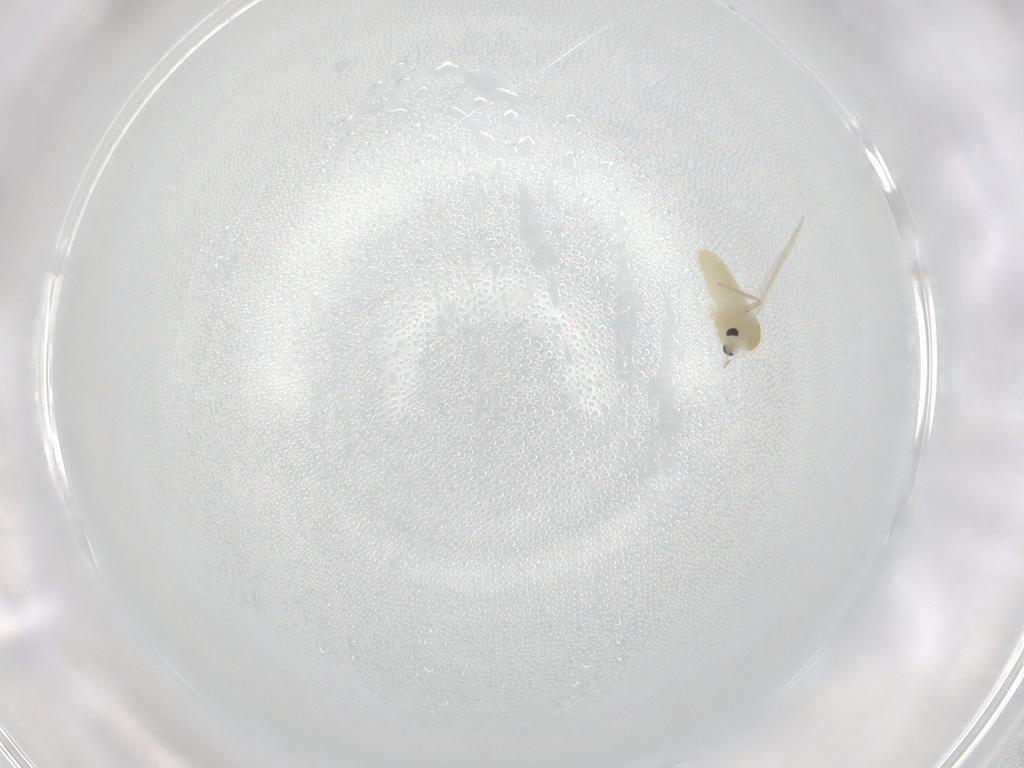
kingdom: Animalia
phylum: Arthropoda
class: Insecta
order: Diptera
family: Chironomidae
